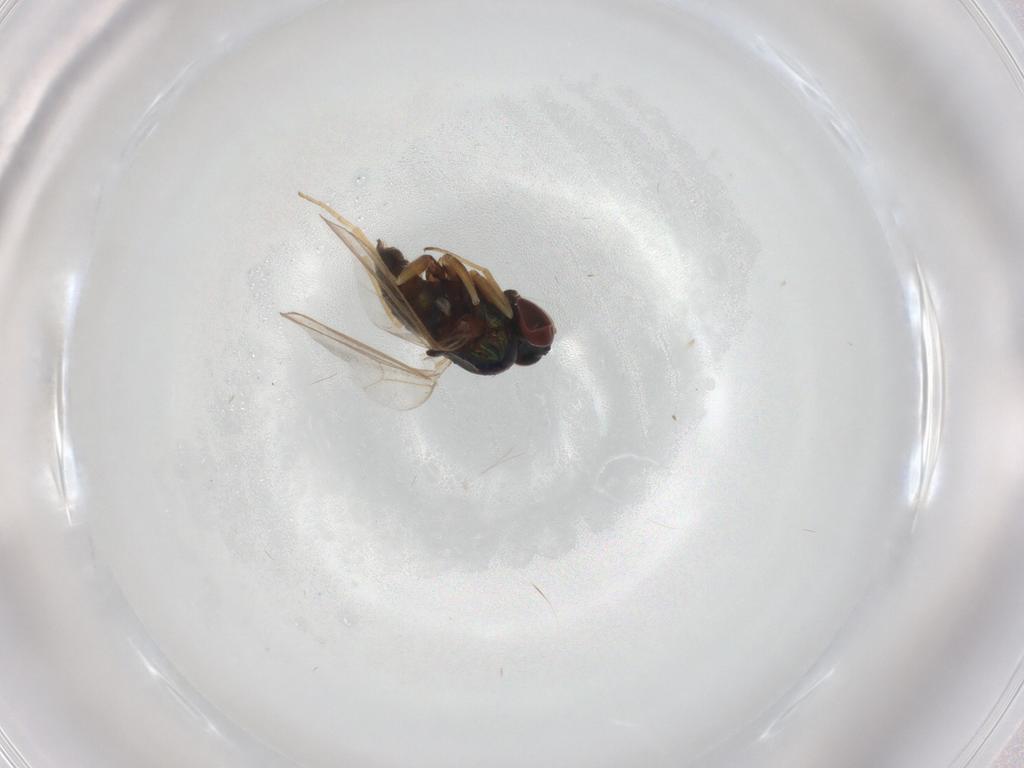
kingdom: Animalia
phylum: Arthropoda
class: Insecta
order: Diptera
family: Dolichopodidae
